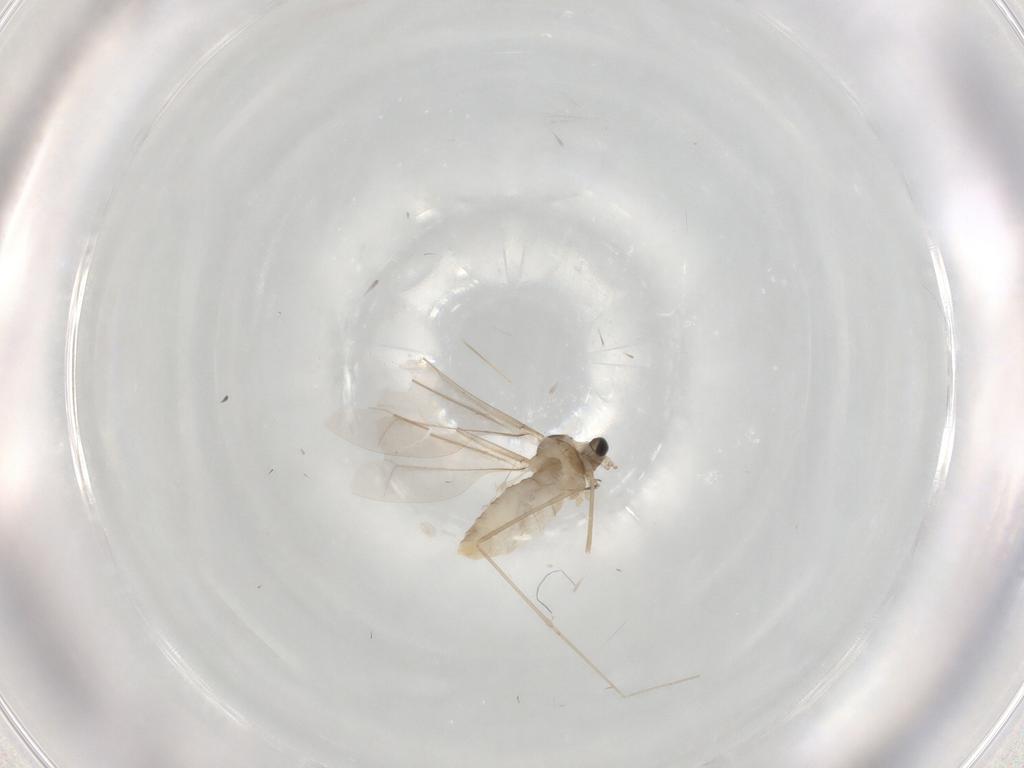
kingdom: Animalia
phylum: Arthropoda
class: Insecta
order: Diptera
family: Cecidomyiidae
